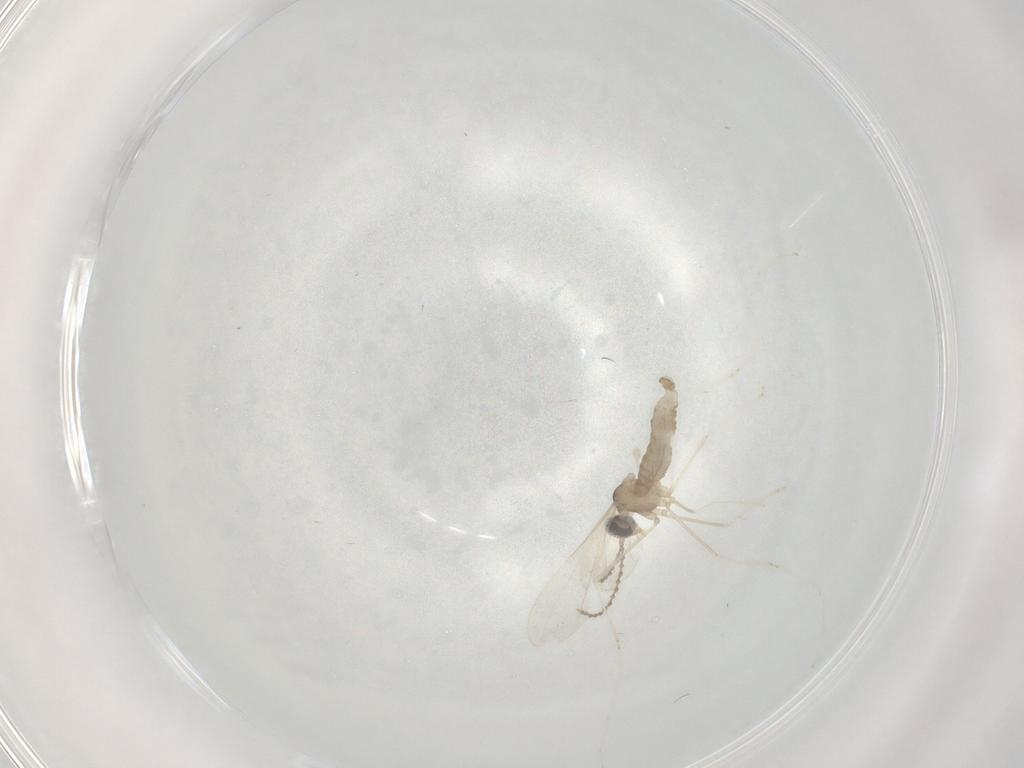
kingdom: Animalia
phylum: Arthropoda
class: Insecta
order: Diptera
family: Cecidomyiidae
